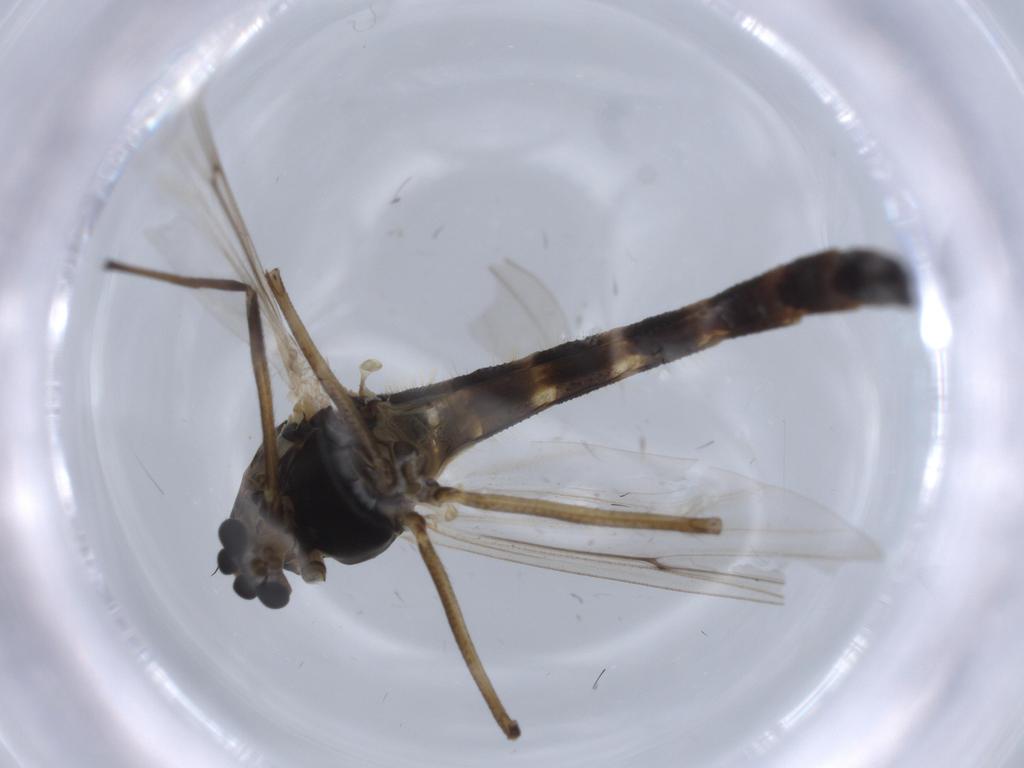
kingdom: Animalia
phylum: Arthropoda
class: Insecta
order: Diptera
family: Chironomidae
